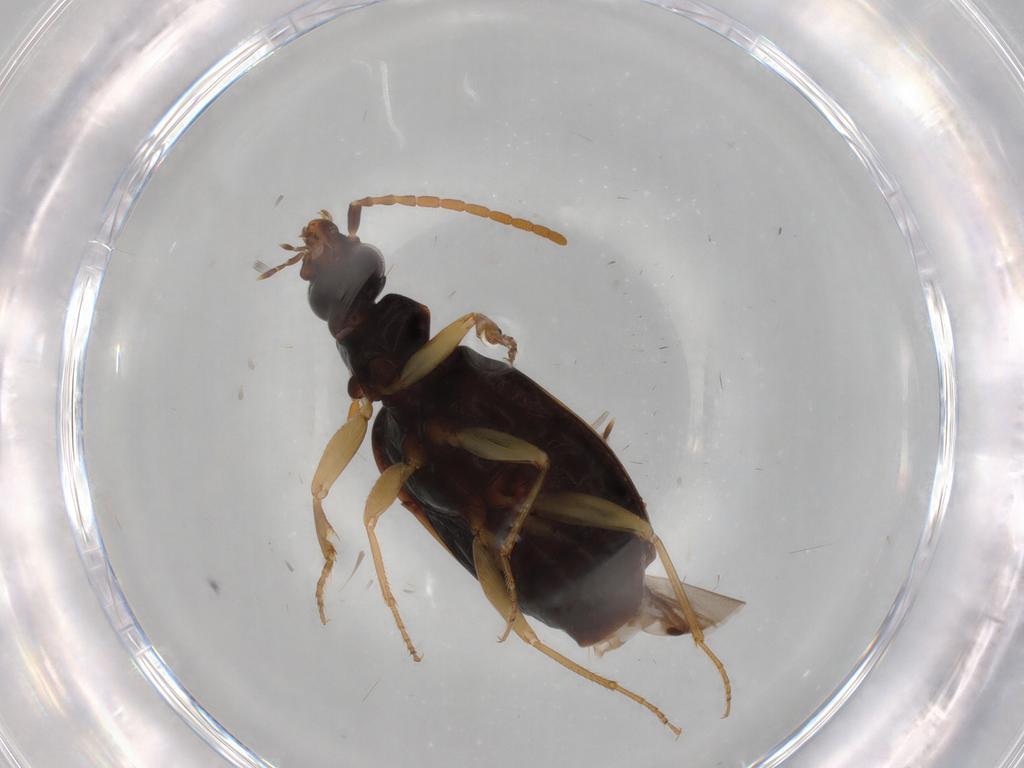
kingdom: Animalia
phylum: Arthropoda
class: Insecta
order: Coleoptera
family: Carabidae
